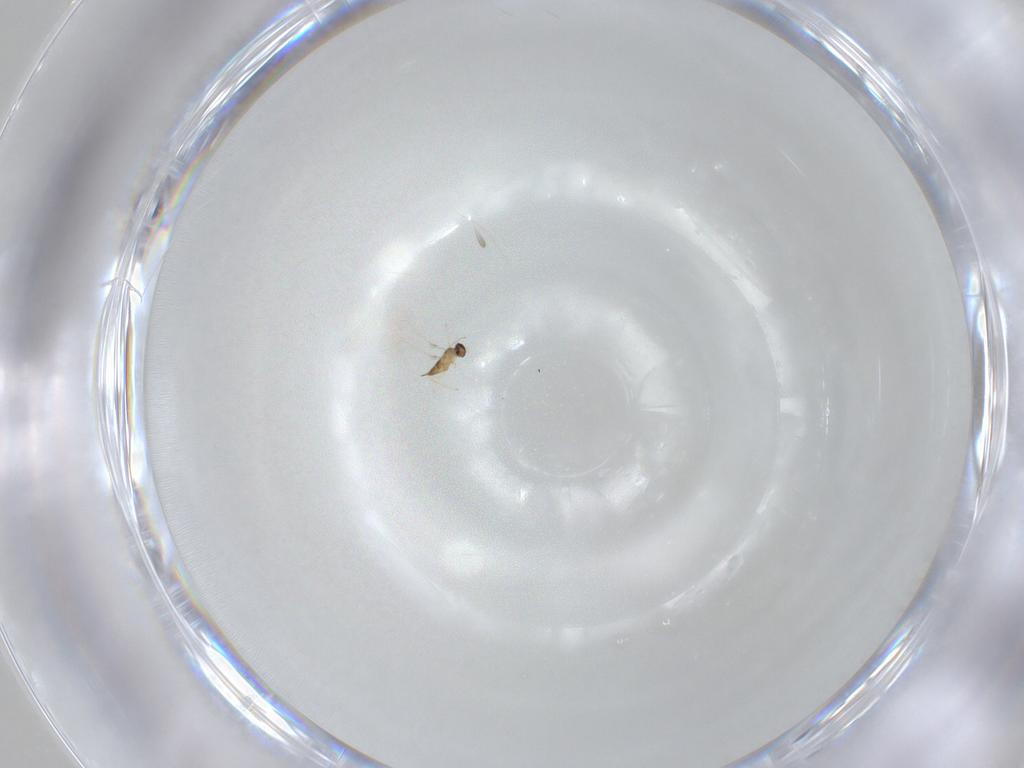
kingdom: Animalia
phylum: Arthropoda
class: Insecta
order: Hymenoptera
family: Mymaridae
